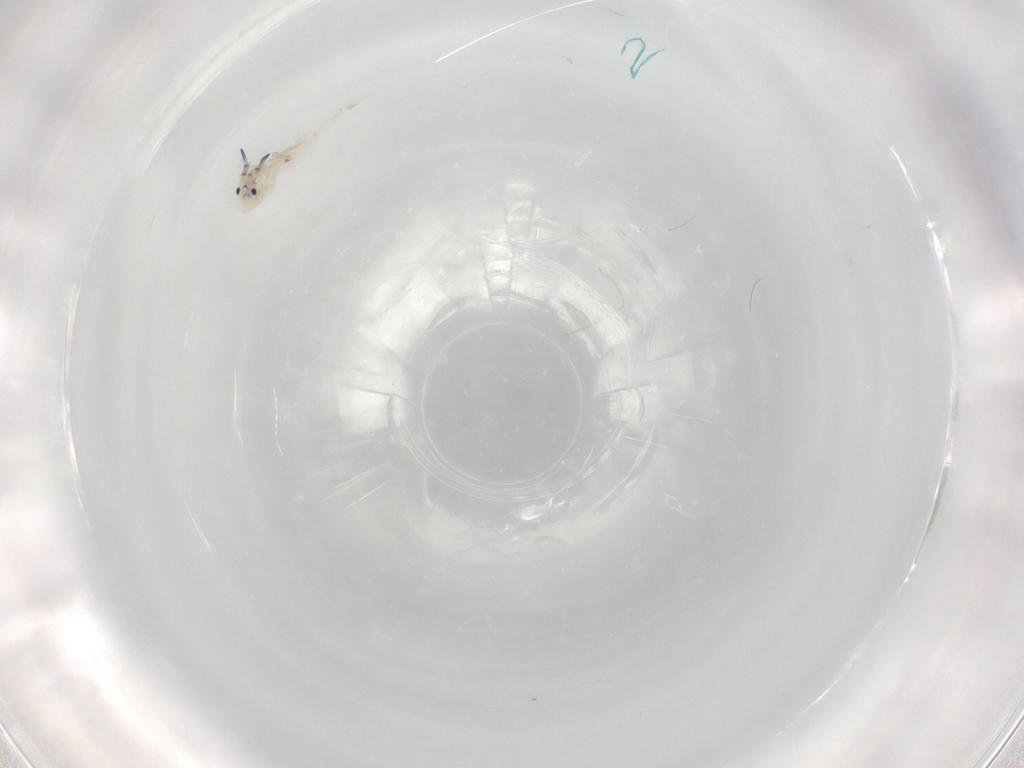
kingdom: Animalia
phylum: Arthropoda
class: Collembola
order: Entomobryomorpha
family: Entomobryidae
